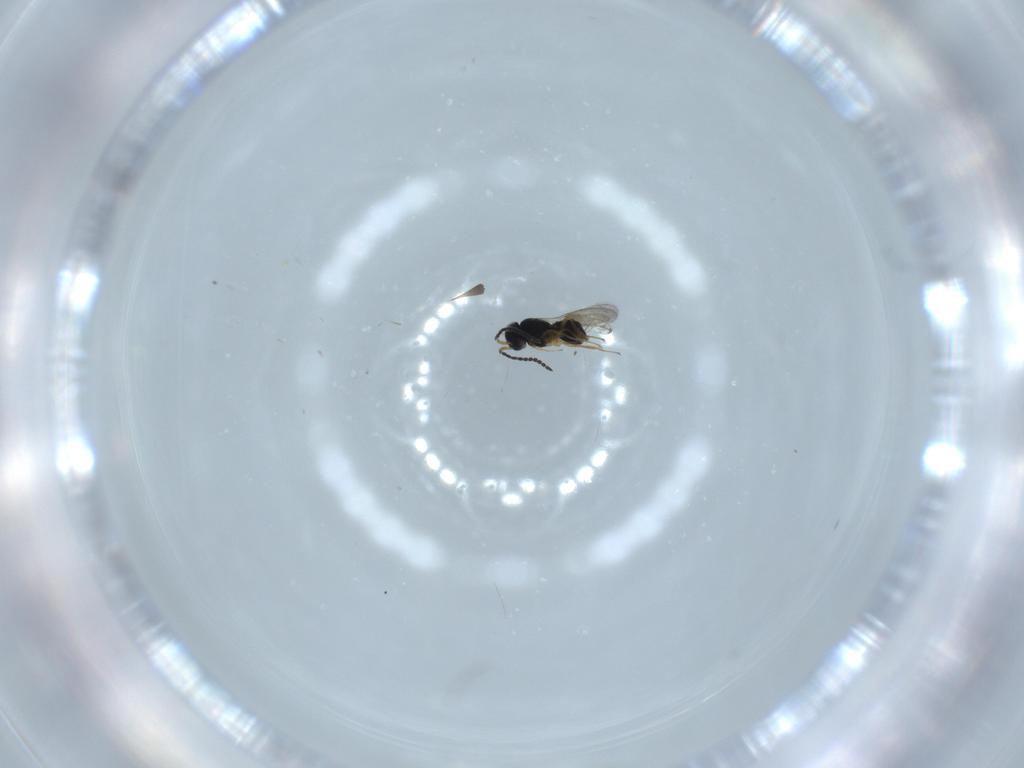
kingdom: Animalia
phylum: Arthropoda
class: Insecta
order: Hymenoptera
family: Scelionidae
